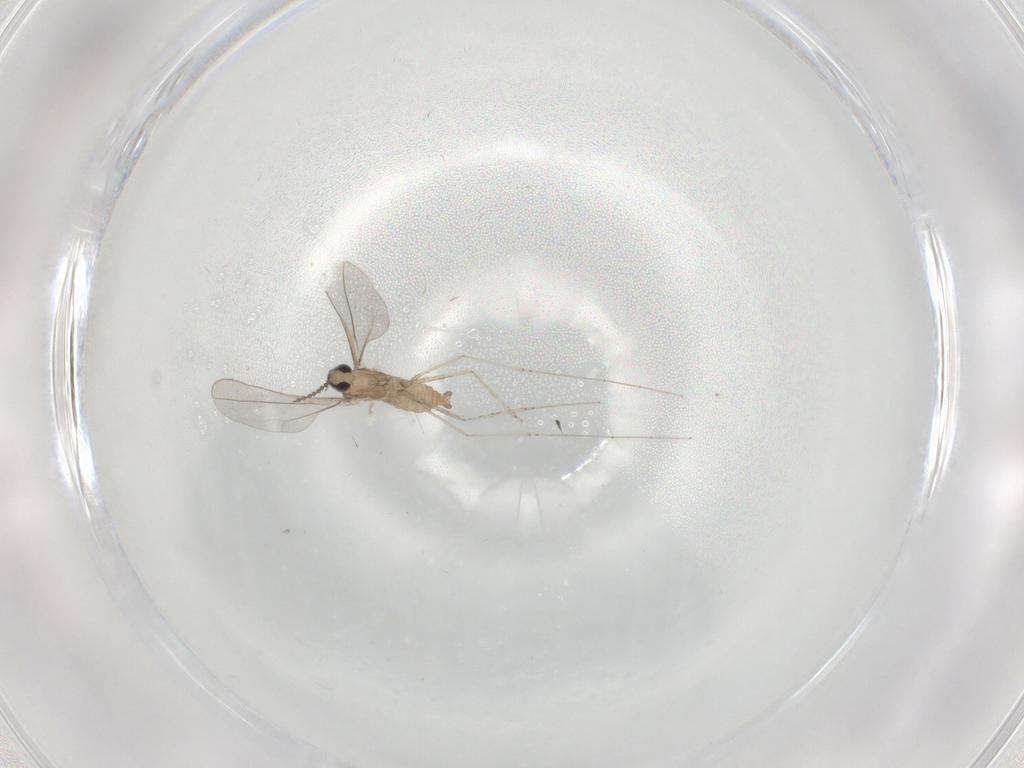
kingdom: Animalia
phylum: Arthropoda
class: Insecta
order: Diptera
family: Cecidomyiidae
